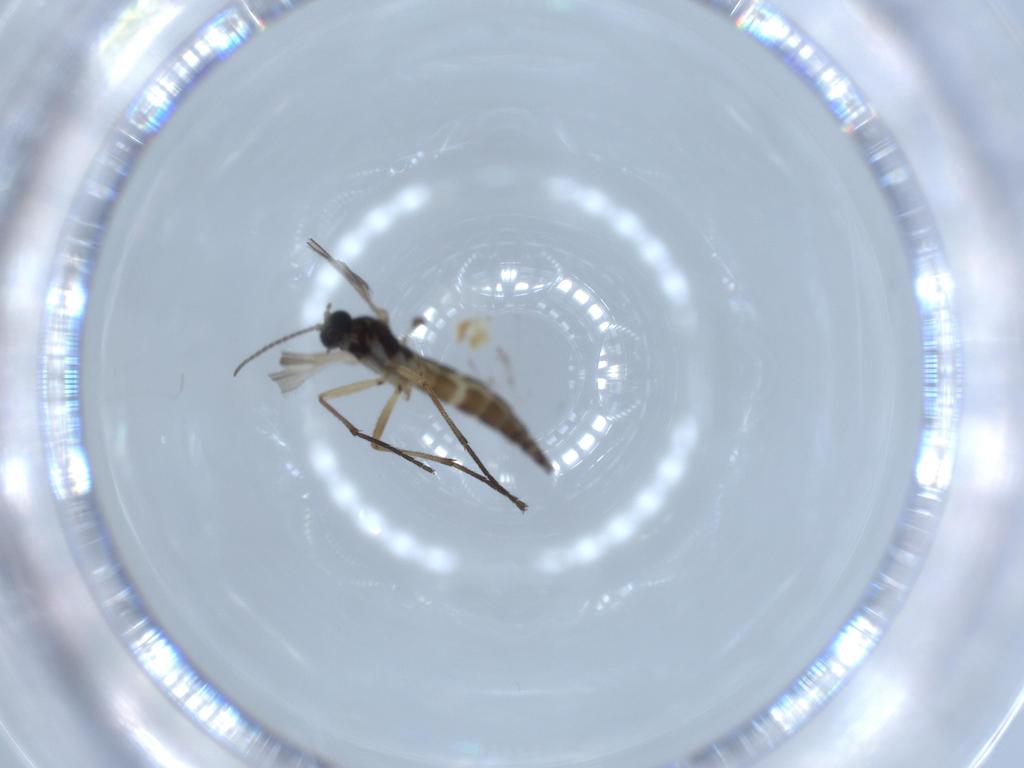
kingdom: Animalia
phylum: Arthropoda
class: Insecta
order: Diptera
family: Sciaridae
